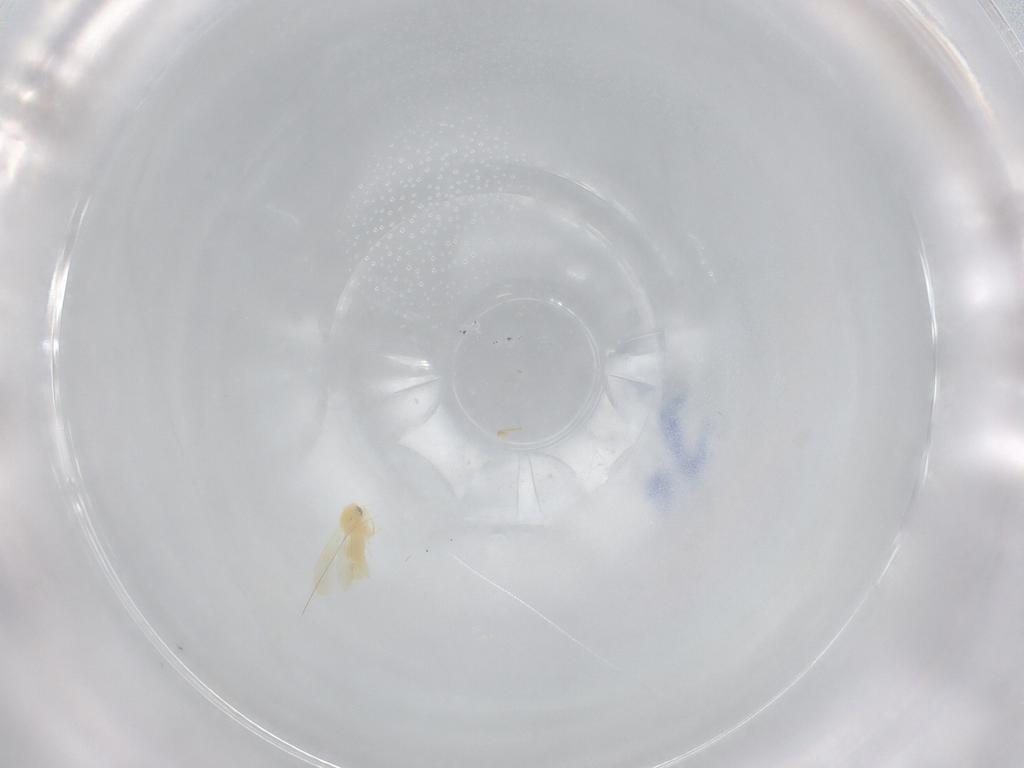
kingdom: Animalia
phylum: Arthropoda
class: Insecta
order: Hemiptera
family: Aleyrodidae
